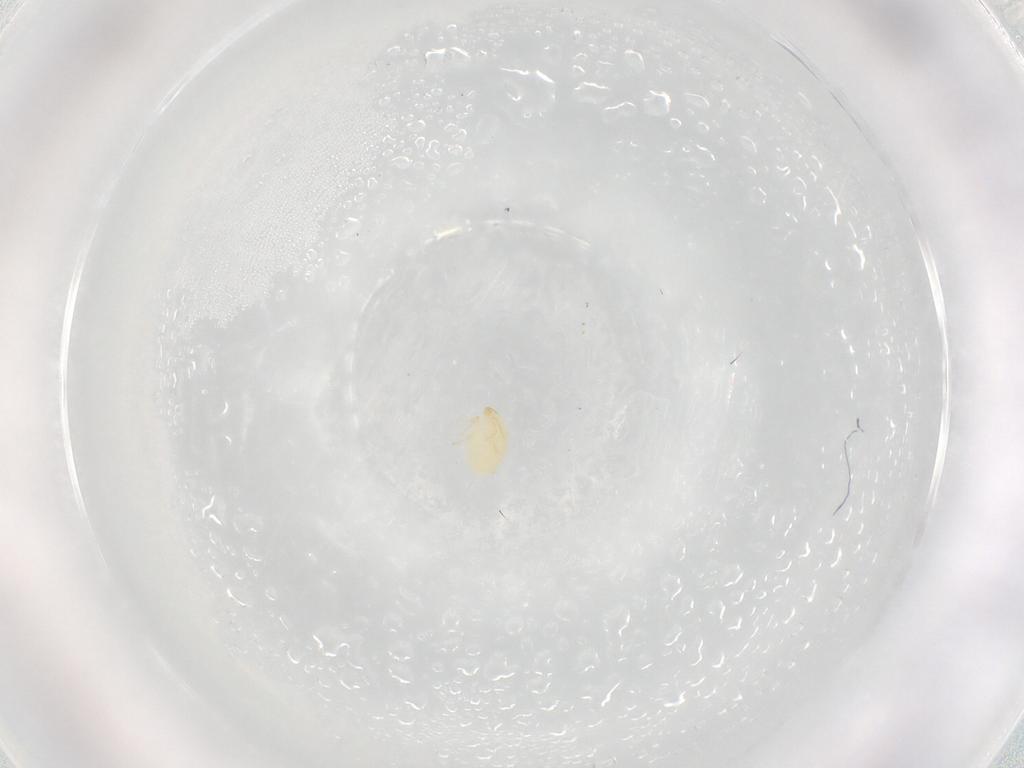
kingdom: Animalia
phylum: Arthropoda
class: Arachnida
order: Trombidiformes
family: Microtrombidiidae
